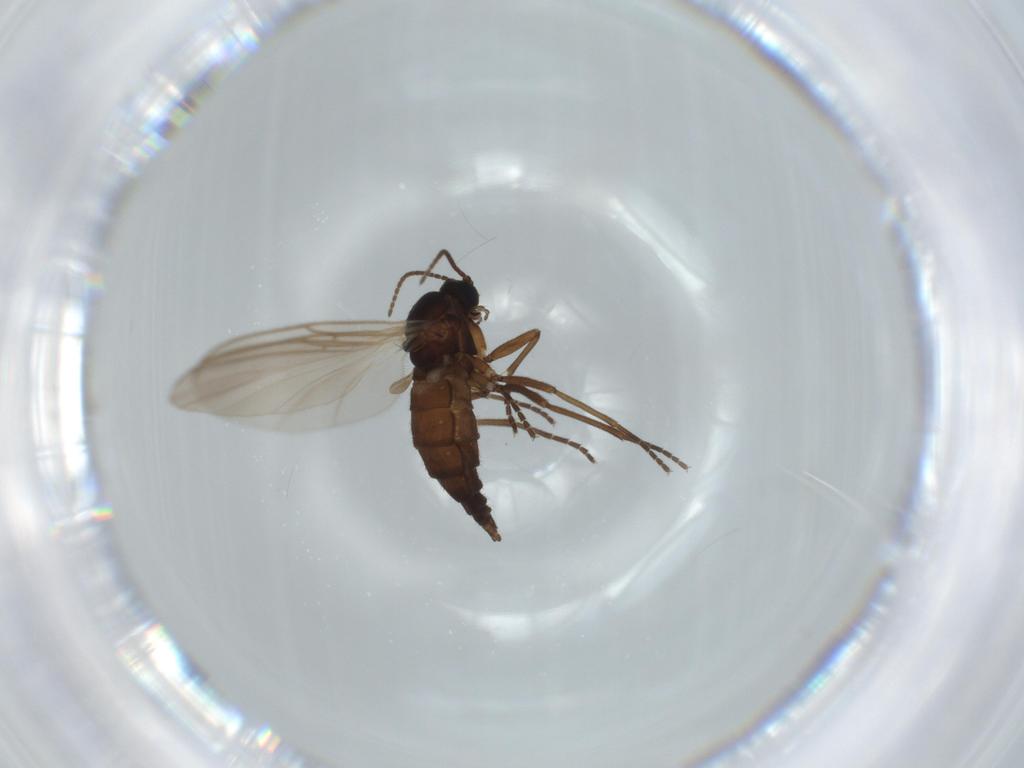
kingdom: Animalia
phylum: Arthropoda
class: Insecta
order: Diptera
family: Sciaridae
